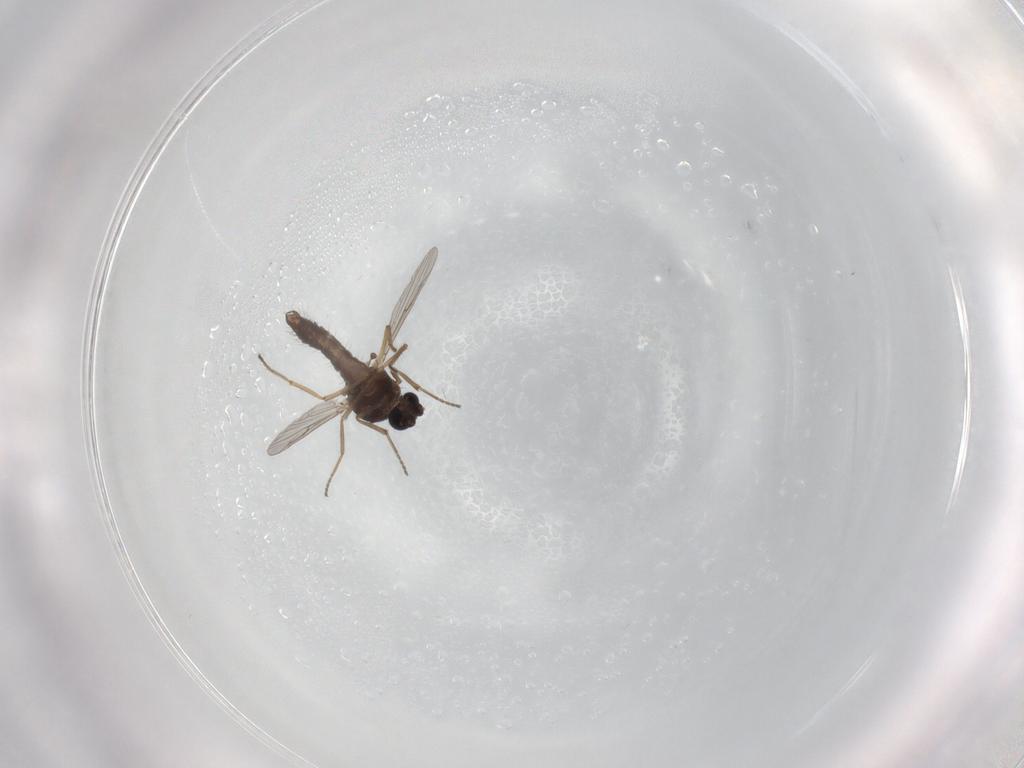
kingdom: Animalia
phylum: Arthropoda
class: Insecta
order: Diptera
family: Ceratopogonidae
